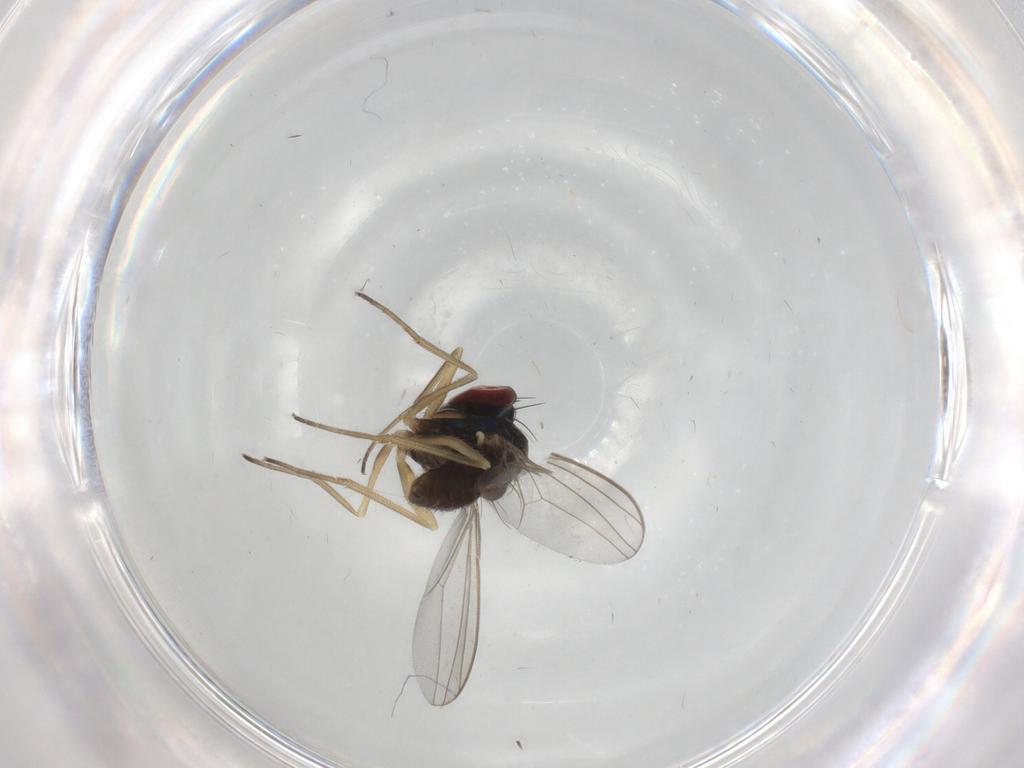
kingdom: Animalia
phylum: Arthropoda
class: Insecta
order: Diptera
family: Dolichopodidae
